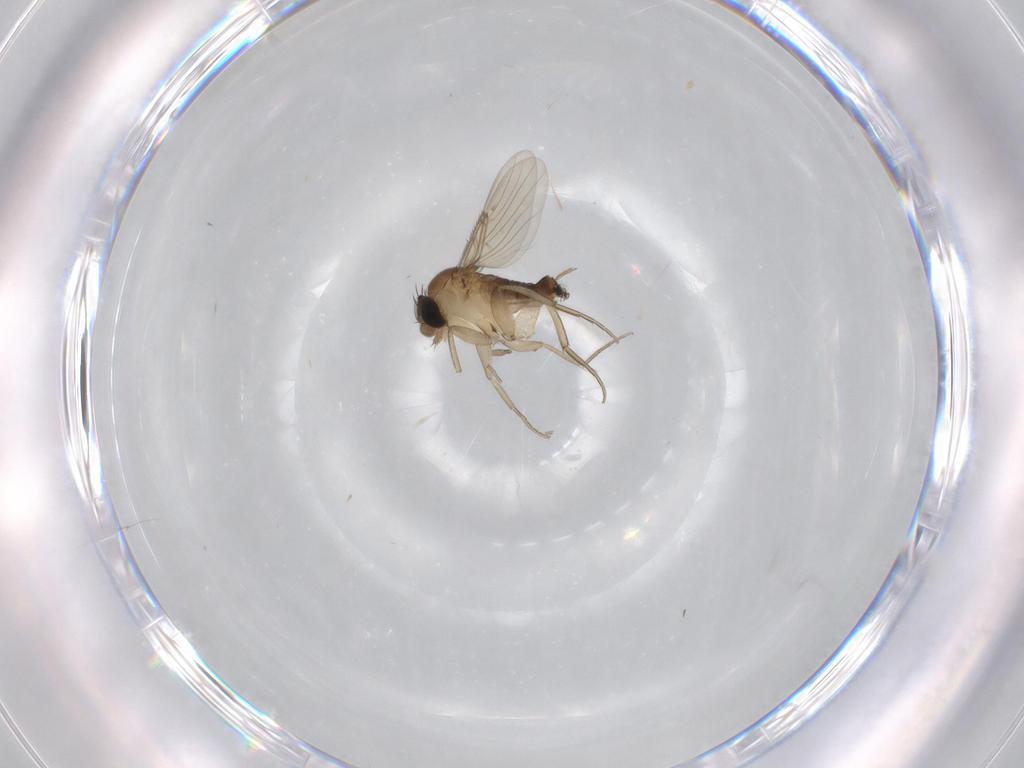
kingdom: Animalia
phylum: Arthropoda
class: Insecta
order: Diptera
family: Phoridae
